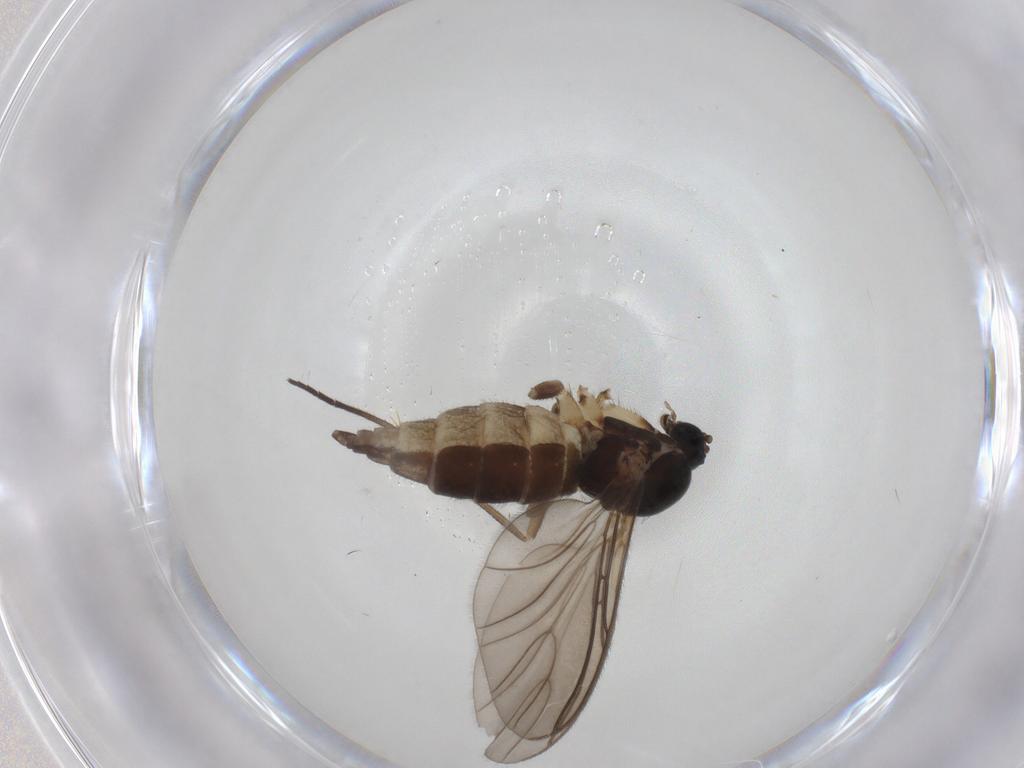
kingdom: Animalia
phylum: Arthropoda
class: Insecta
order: Diptera
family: Sciaridae
